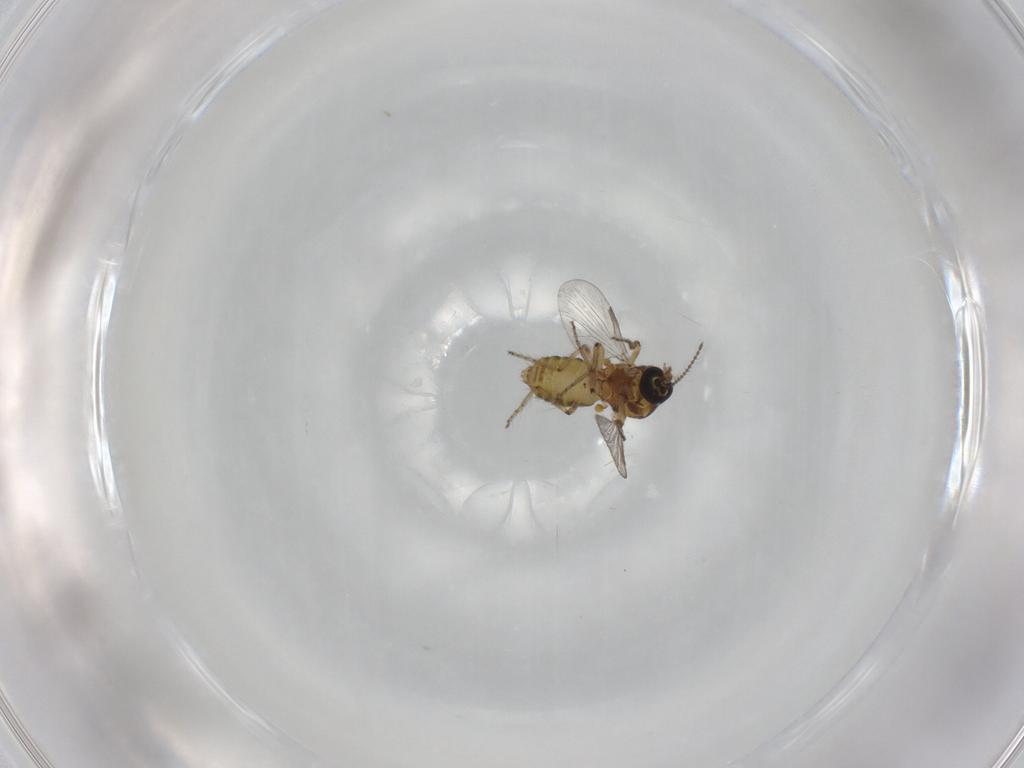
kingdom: Animalia
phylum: Arthropoda
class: Insecta
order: Diptera
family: Ceratopogonidae
